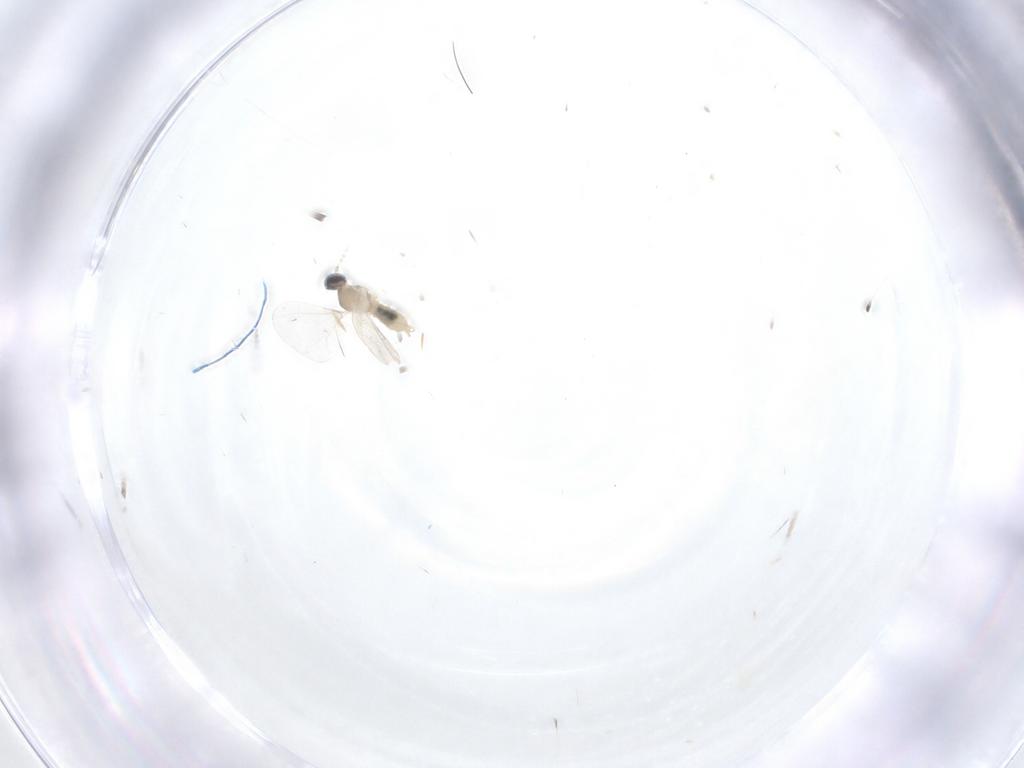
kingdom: Animalia
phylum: Arthropoda
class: Insecta
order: Diptera
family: Cecidomyiidae
